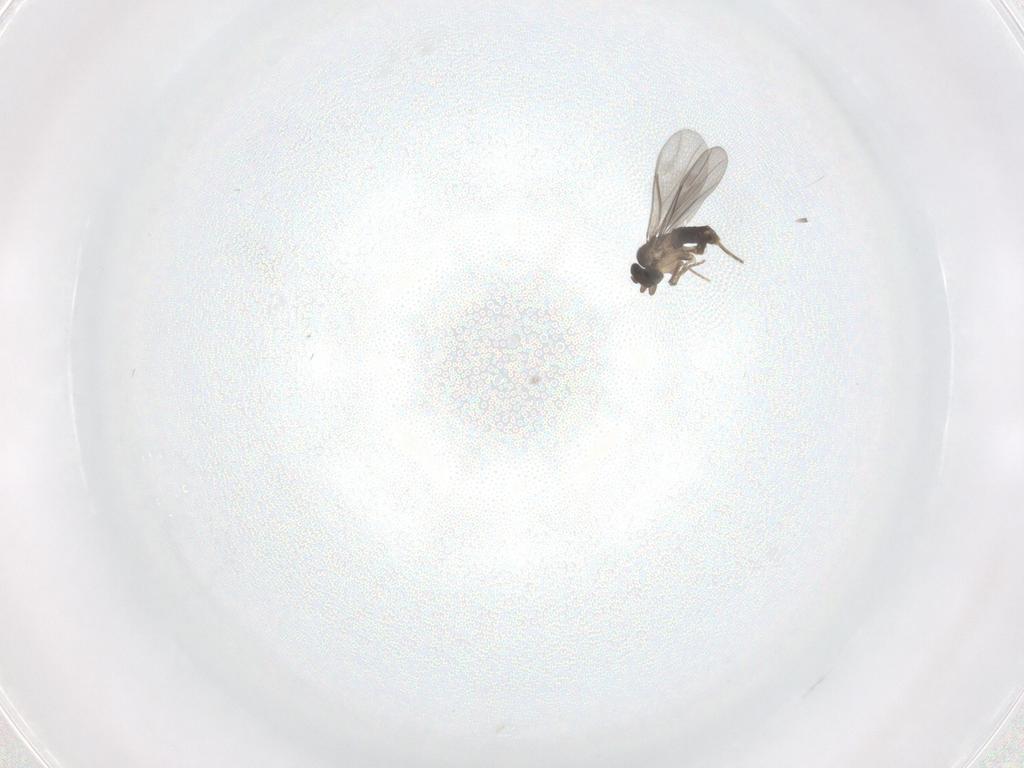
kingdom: Animalia
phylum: Arthropoda
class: Insecta
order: Diptera
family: Cecidomyiidae
